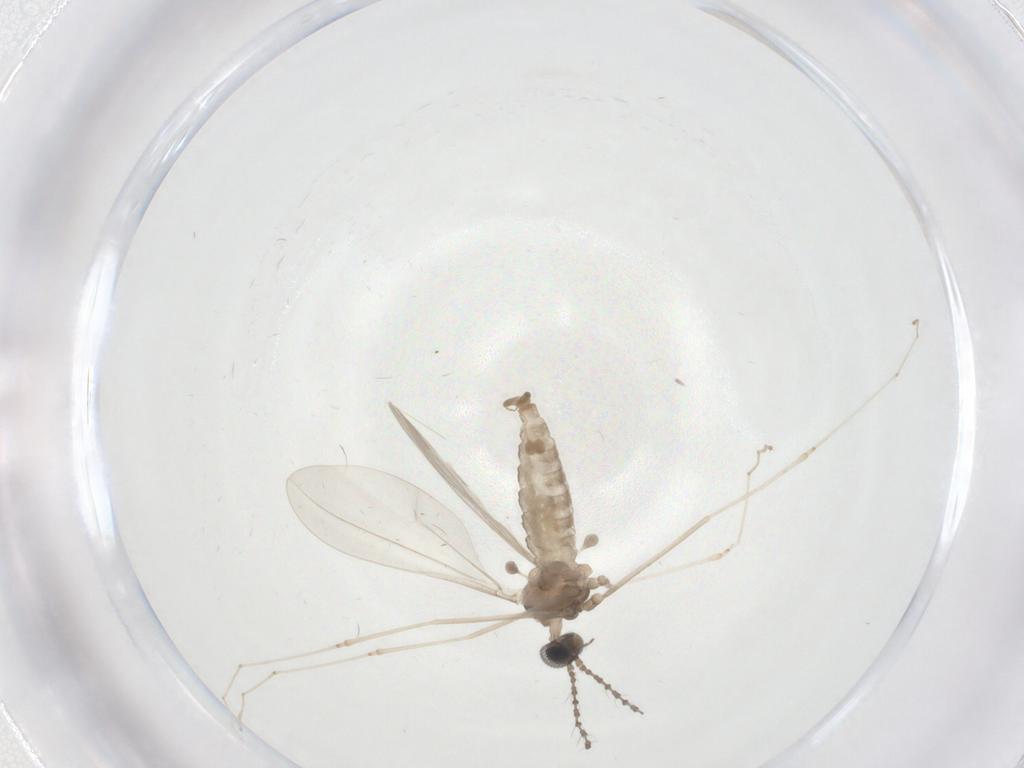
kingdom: Animalia
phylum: Arthropoda
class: Insecta
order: Diptera
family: Cecidomyiidae
